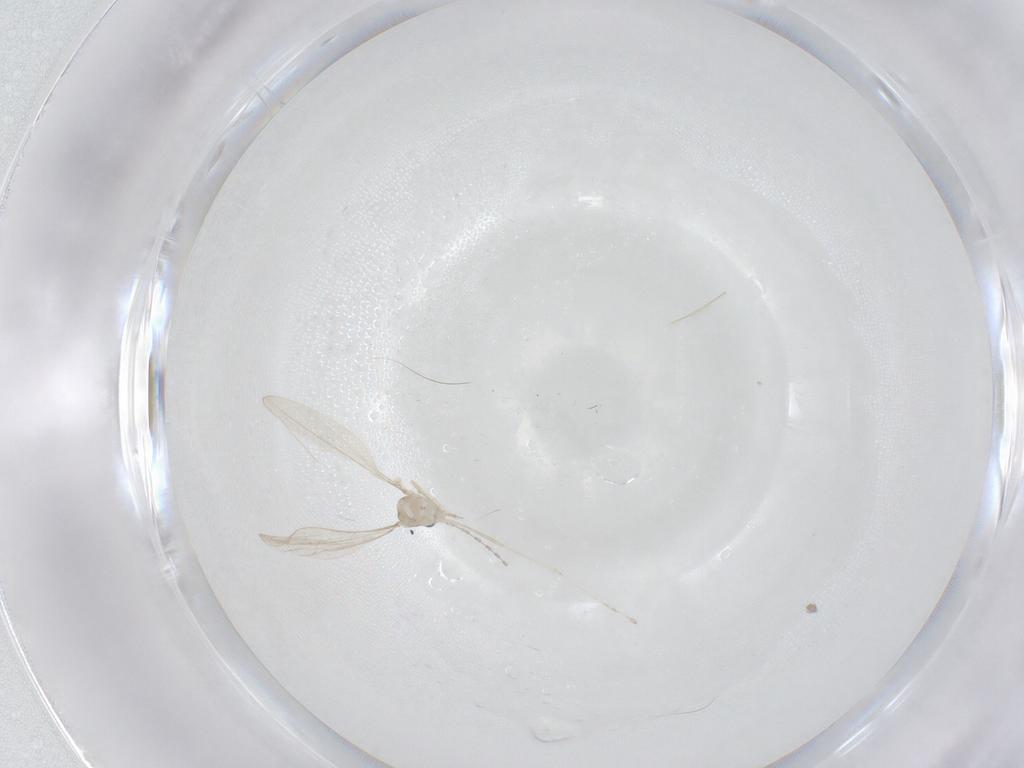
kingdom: Animalia
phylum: Arthropoda
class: Insecta
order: Diptera
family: Cecidomyiidae
